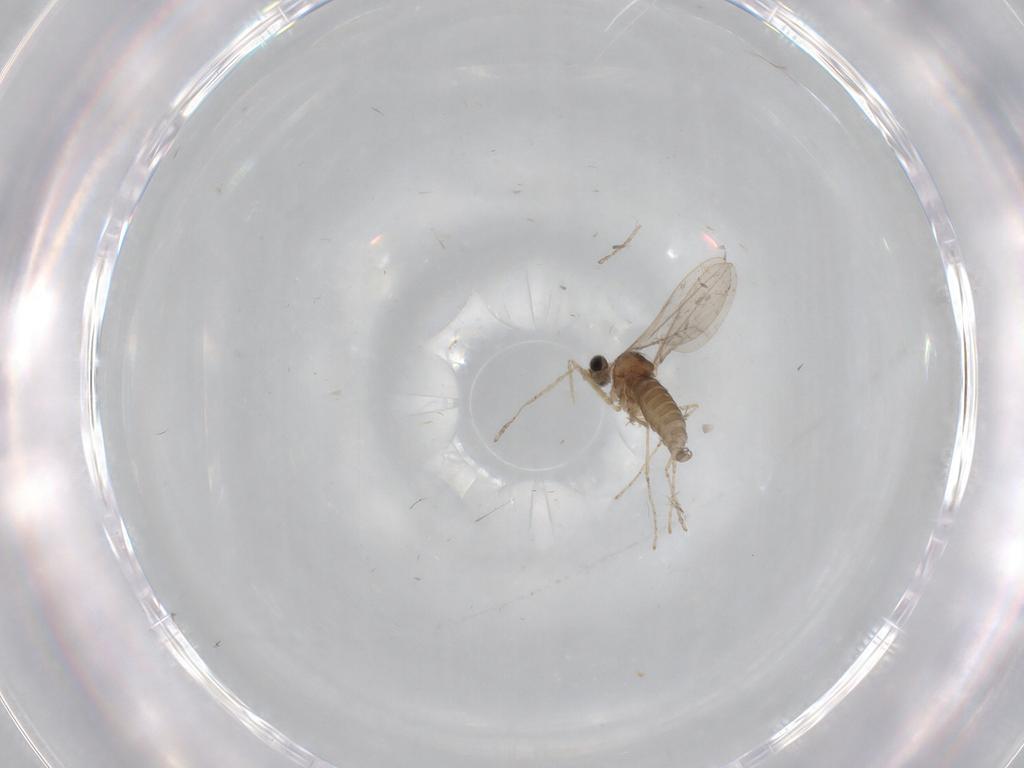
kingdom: Animalia
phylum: Arthropoda
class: Insecta
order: Diptera
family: Cecidomyiidae
